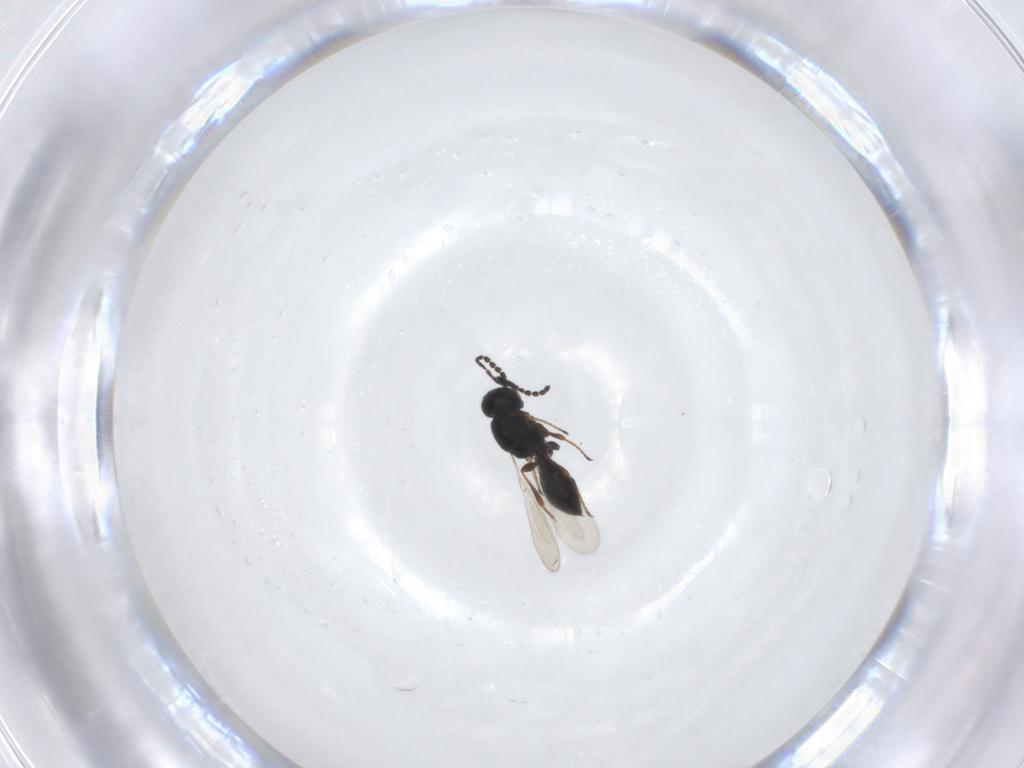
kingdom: Animalia
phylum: Arthropoda
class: Insecta
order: Hymenoptera
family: Platygastridae
